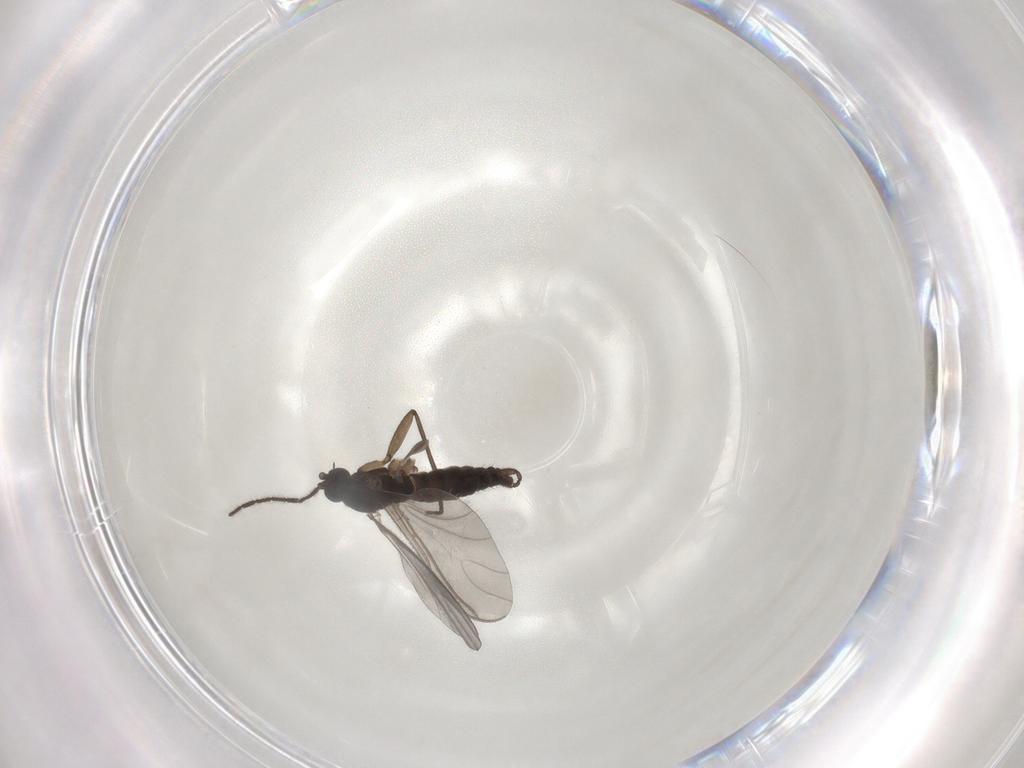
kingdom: Animalia
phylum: Arthropoda
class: Insecta
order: Diptera
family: Sciaridae
